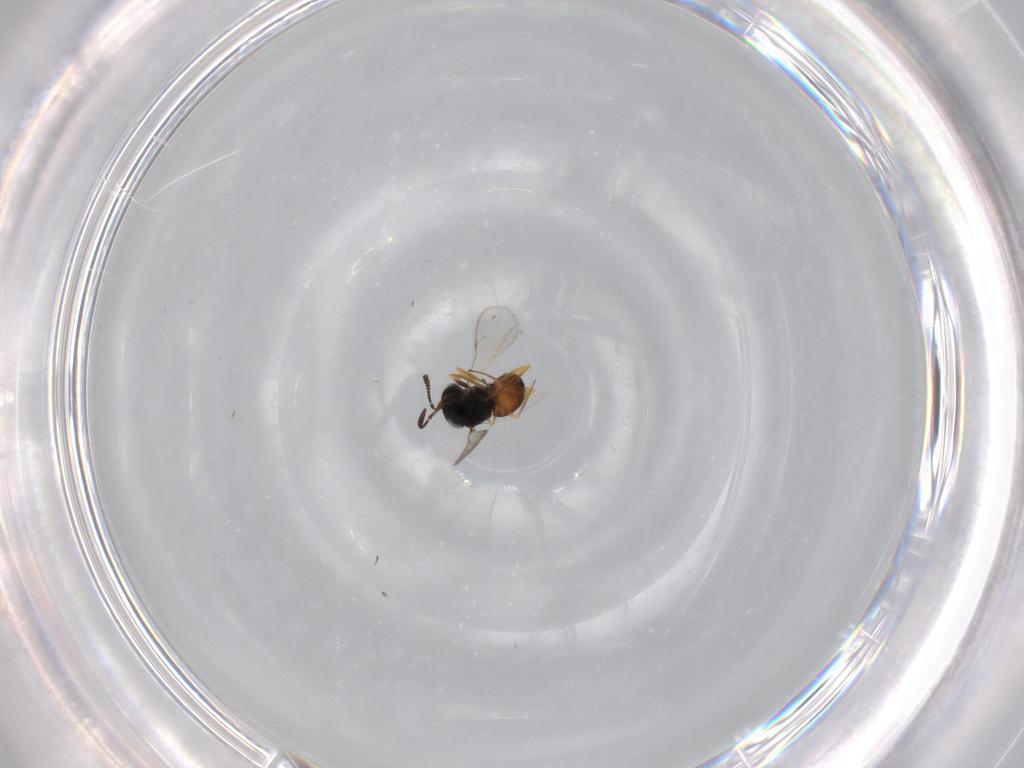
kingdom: Animalia
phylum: Arthropoda
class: Insecta
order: Hymenoptera
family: Scelionidae
